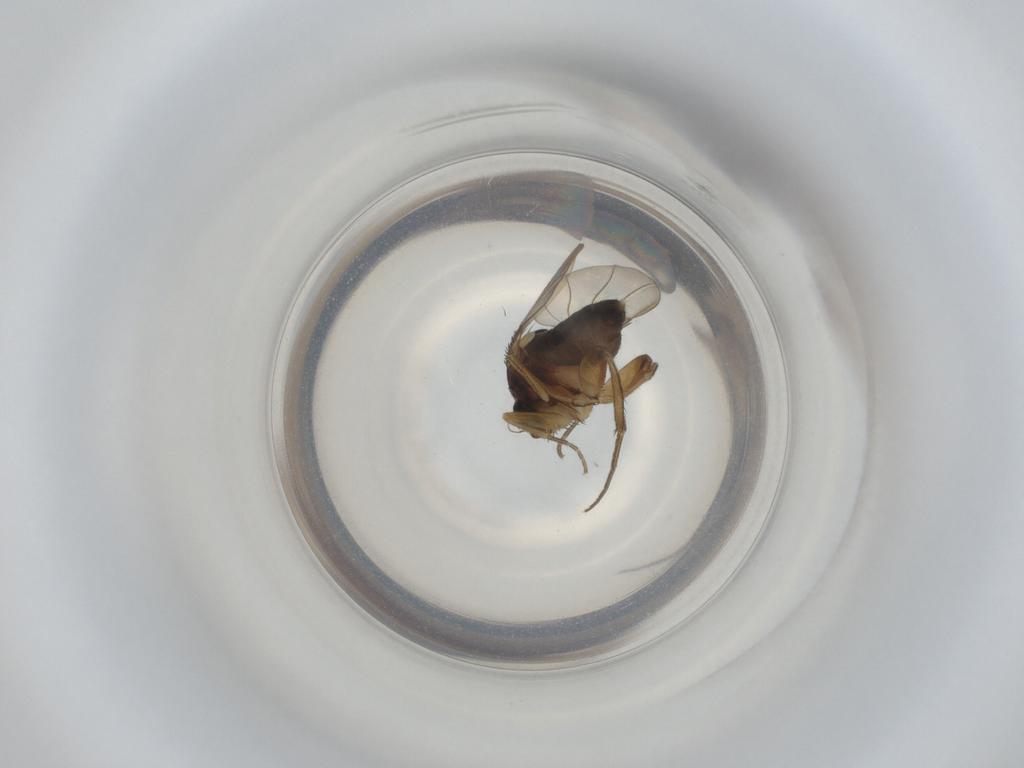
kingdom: Animalia
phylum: Arthropoda
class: Insecta
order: Diptera
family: Phoridae
